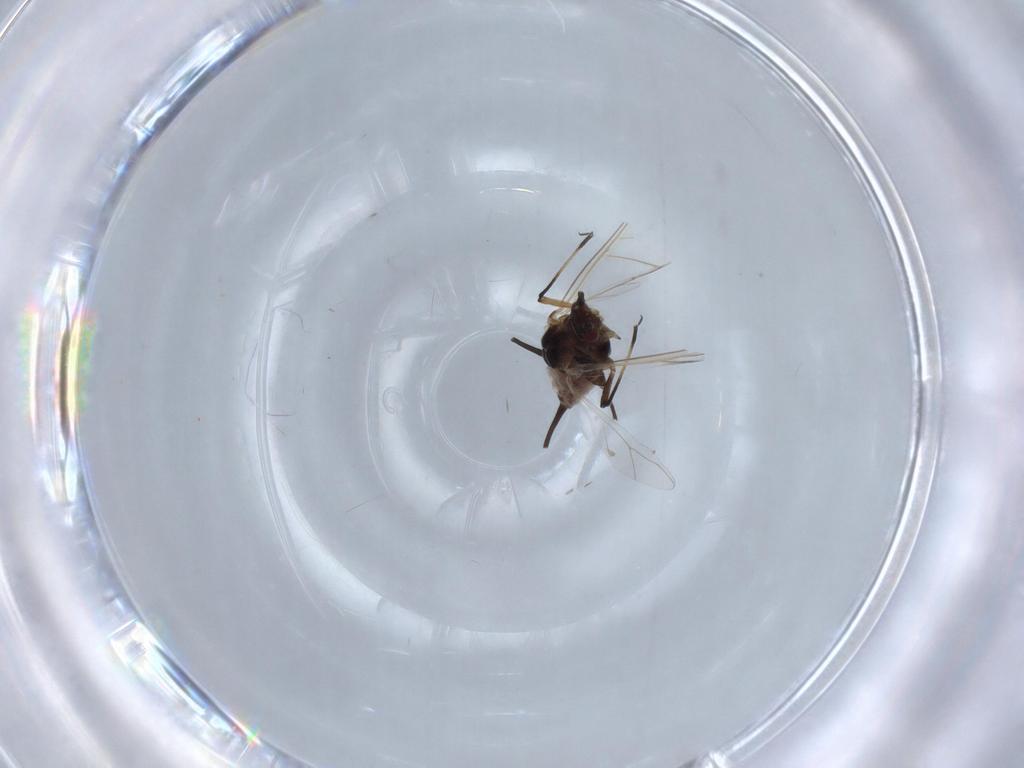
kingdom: Animalia
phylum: Arthropoda
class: Insecta
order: Hemiptera
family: Aphididae
